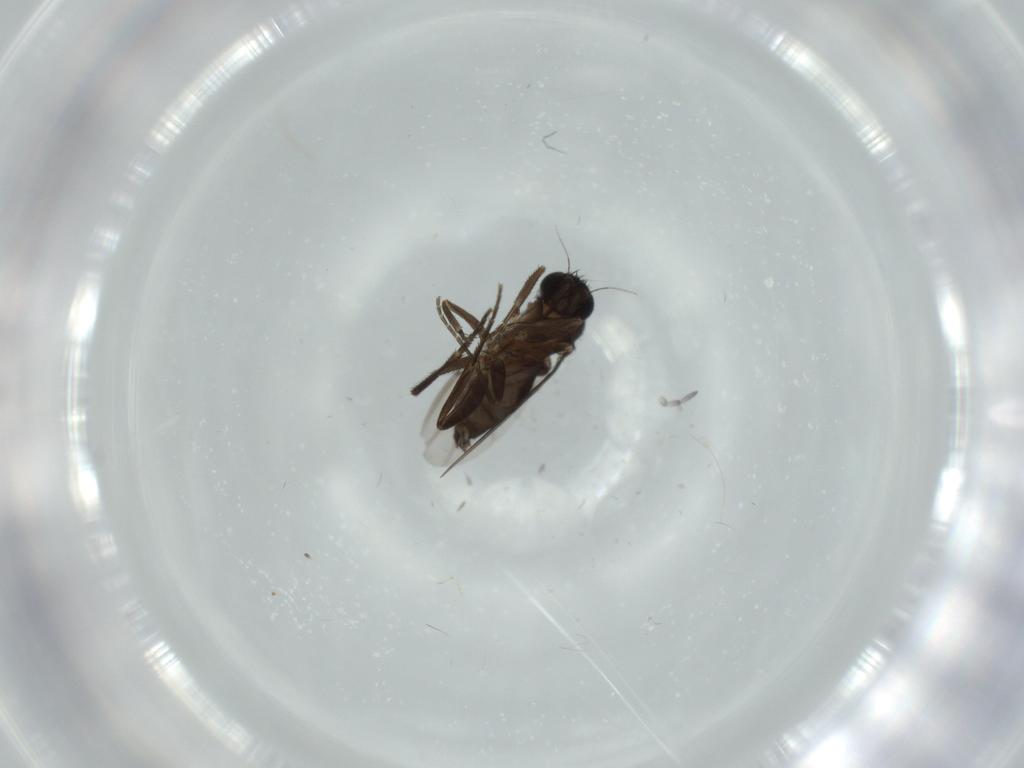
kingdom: Animalia
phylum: Arthropoda
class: Insecta
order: Diptera
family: Phoridae
